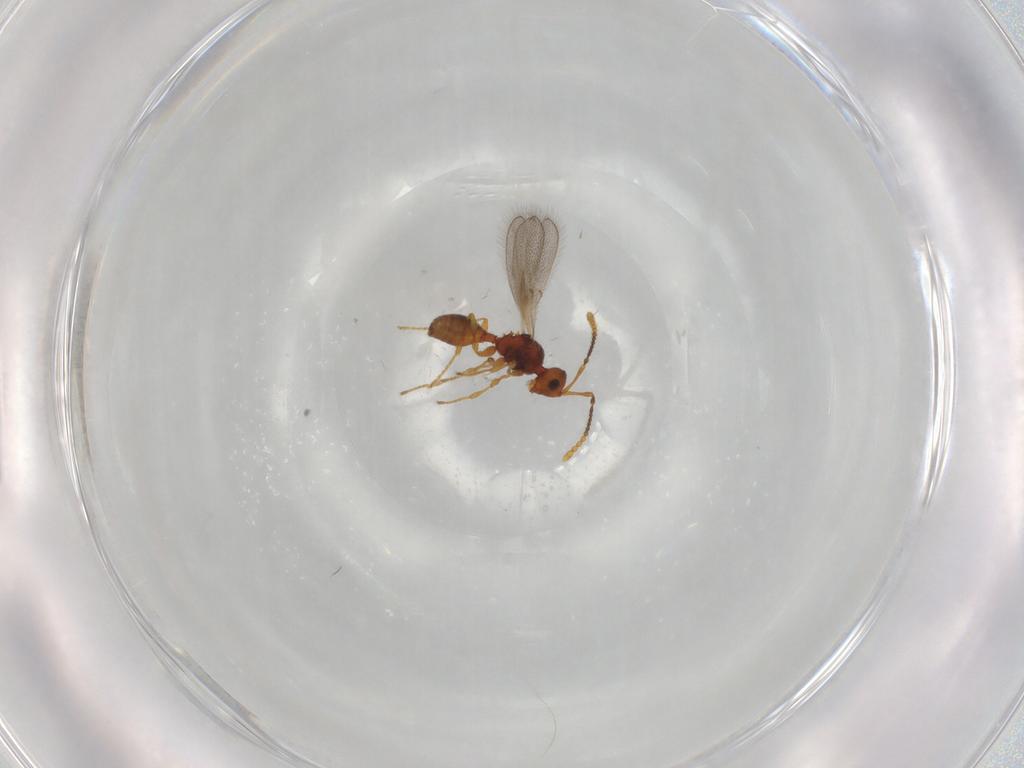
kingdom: Animalia
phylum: Arthropoda
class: Insecta
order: Hymenoptera
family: Diapriidae
